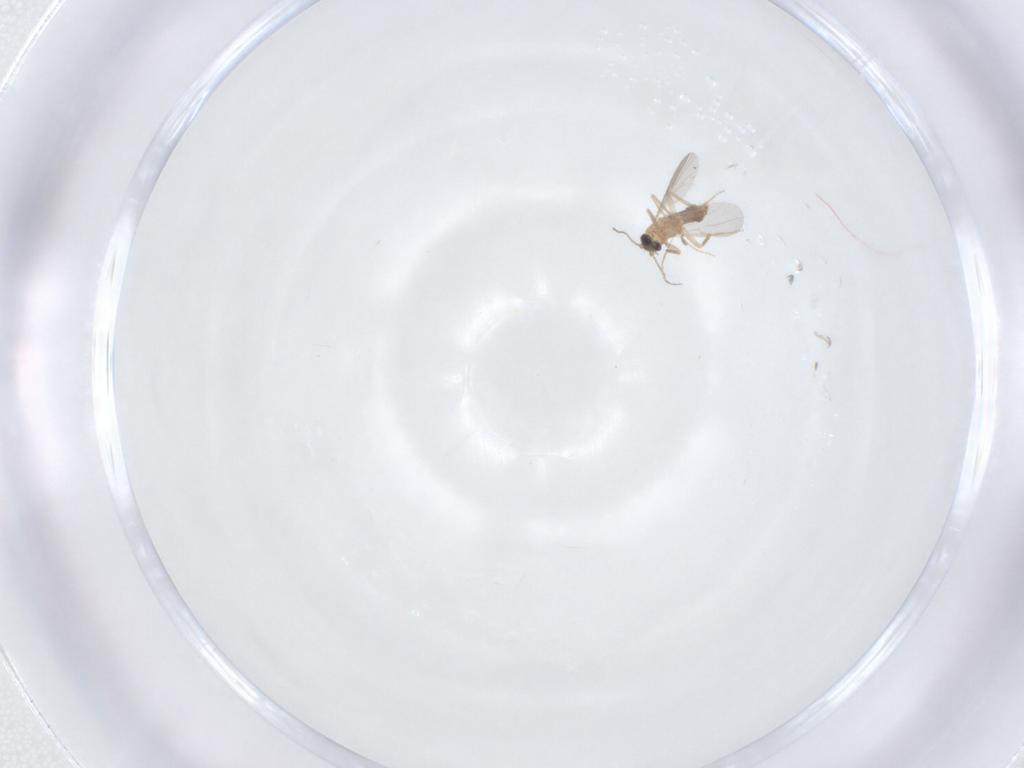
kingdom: Animalia
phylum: Arthropoda
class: Insecta
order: Diptera
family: Ceratopogonidae
